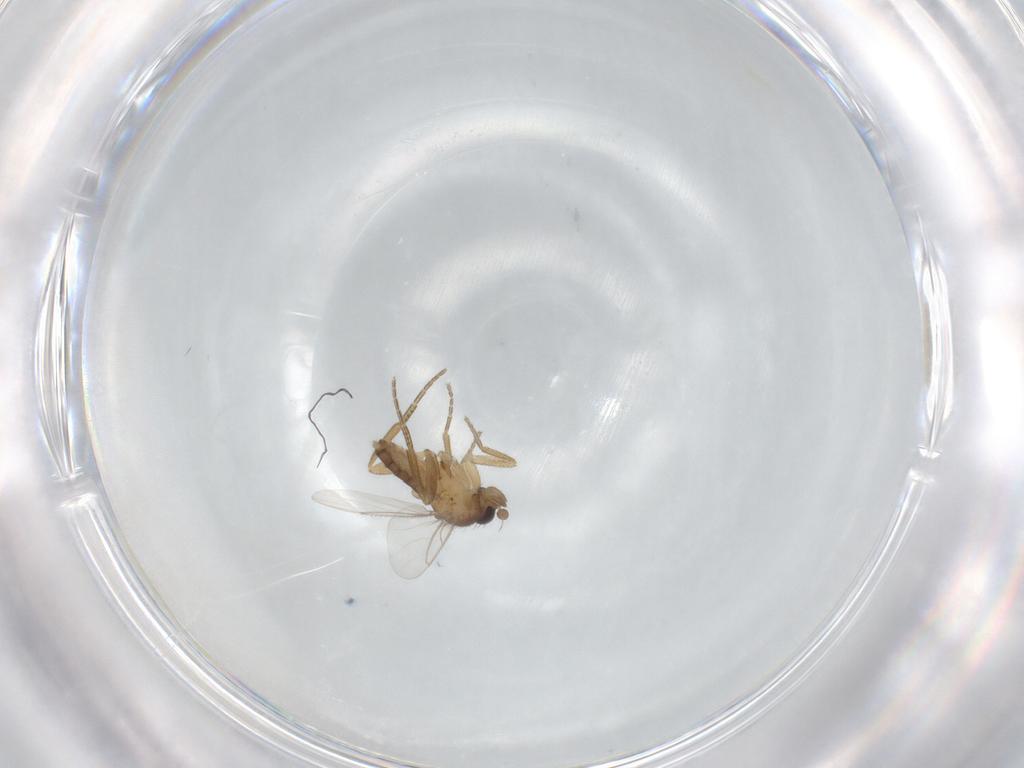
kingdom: Animalia
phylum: Arthropoda
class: Insecta
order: Diptera
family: Phoridae
